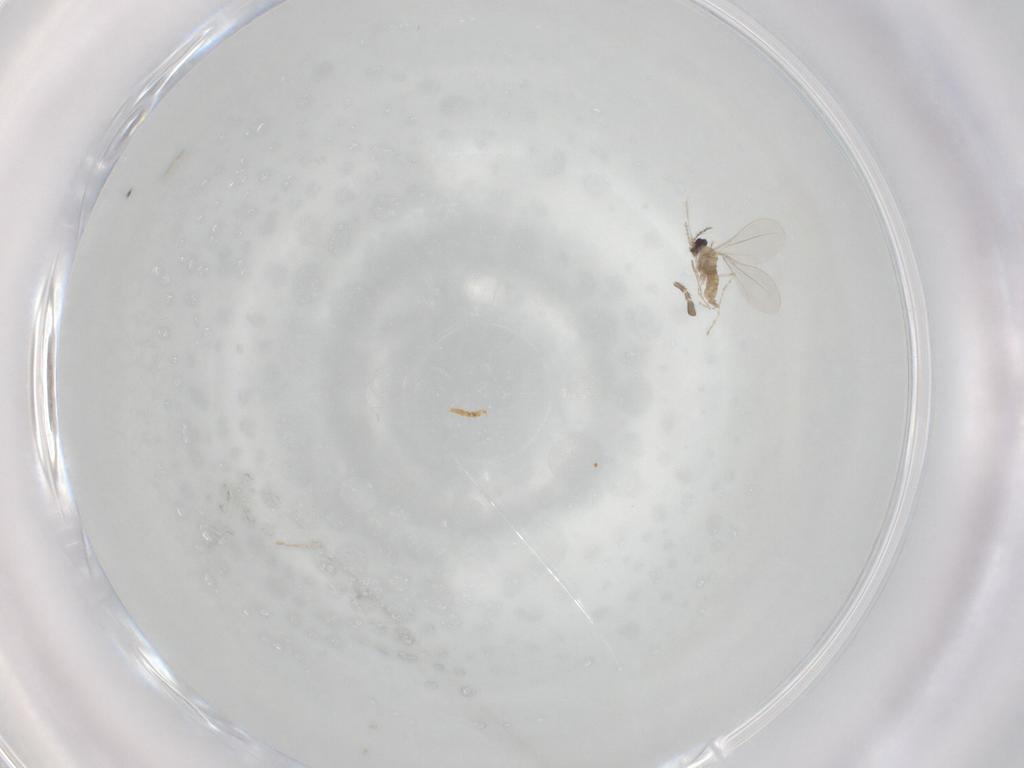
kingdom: Animalia
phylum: Arthropoda
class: Insecta
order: Diptera
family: Cecidomyiidae
